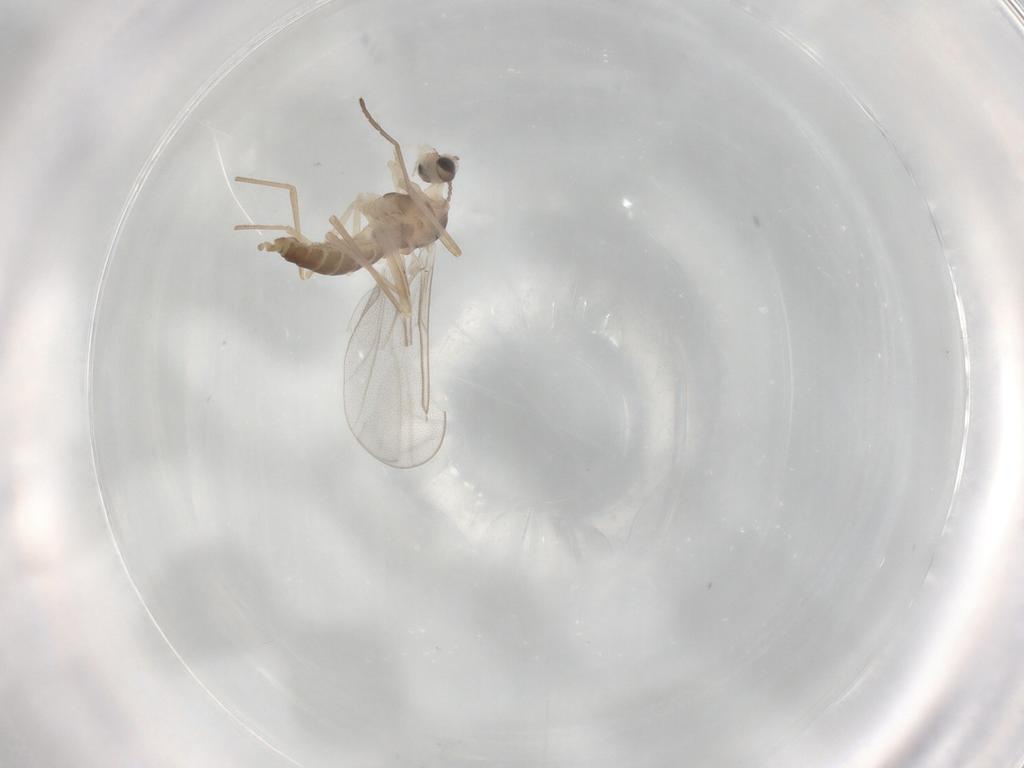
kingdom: Animalia
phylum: Arthropoda
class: Insecta
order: Diptera
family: Cecidomyiidae
